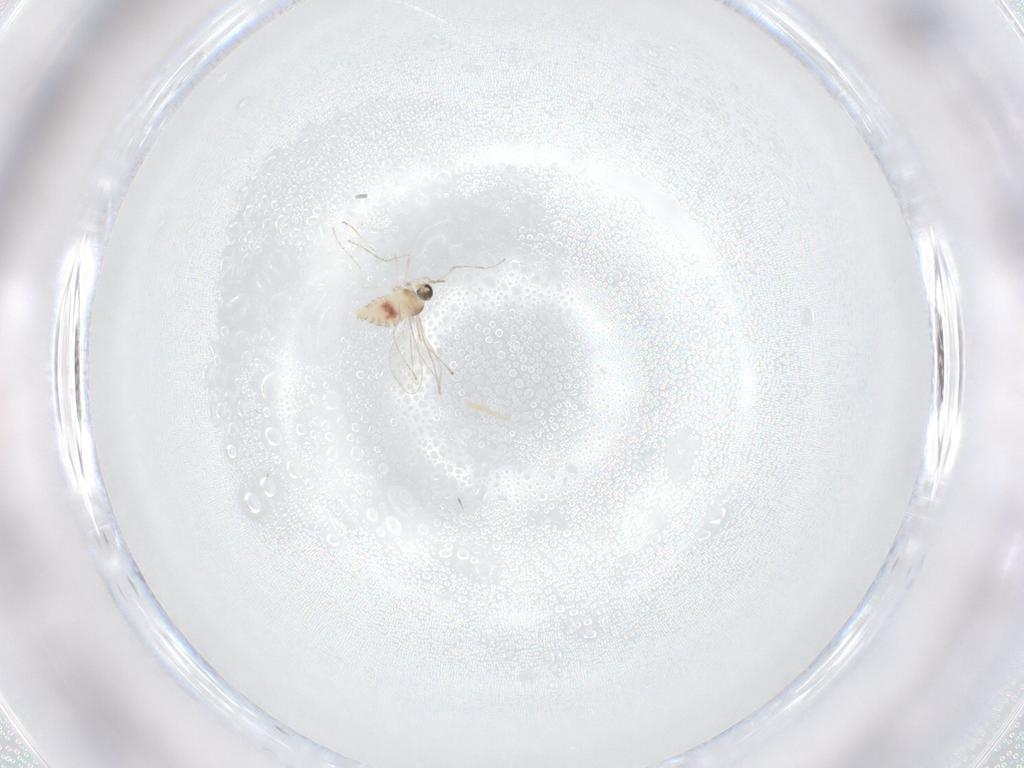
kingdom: Animalia
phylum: Arthropoda
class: Insecta
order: Diptera
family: Cecidomyiidae
